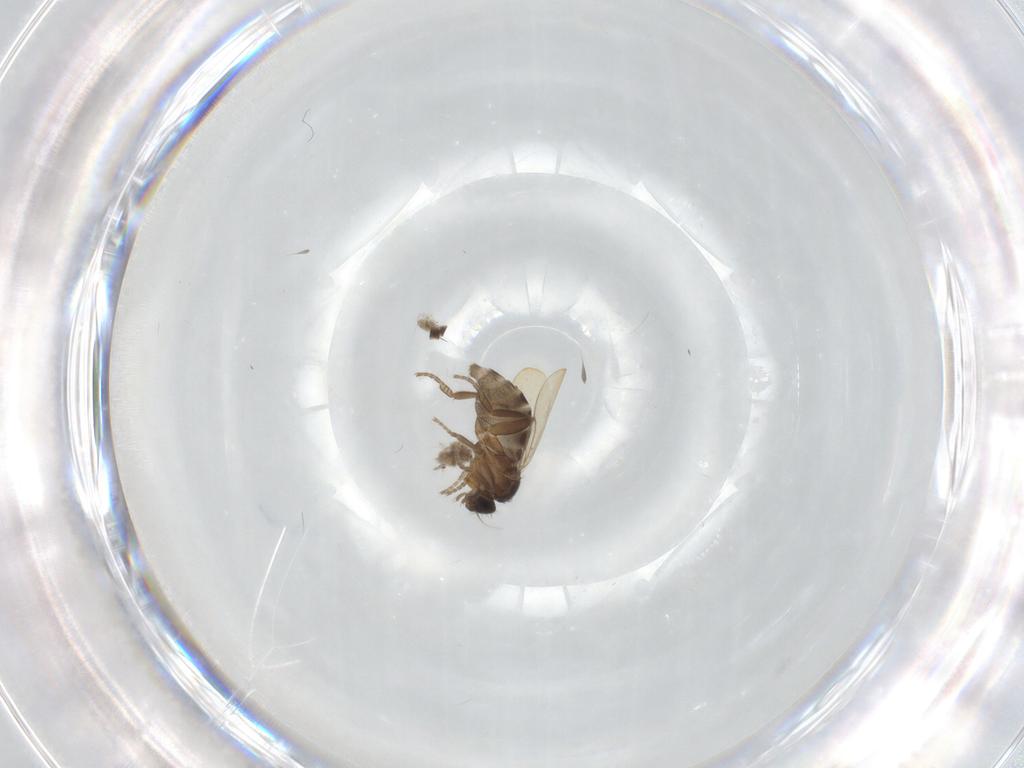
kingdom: Animalia
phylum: Arthropoda
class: Insecta
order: Diptera
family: Phoridae
